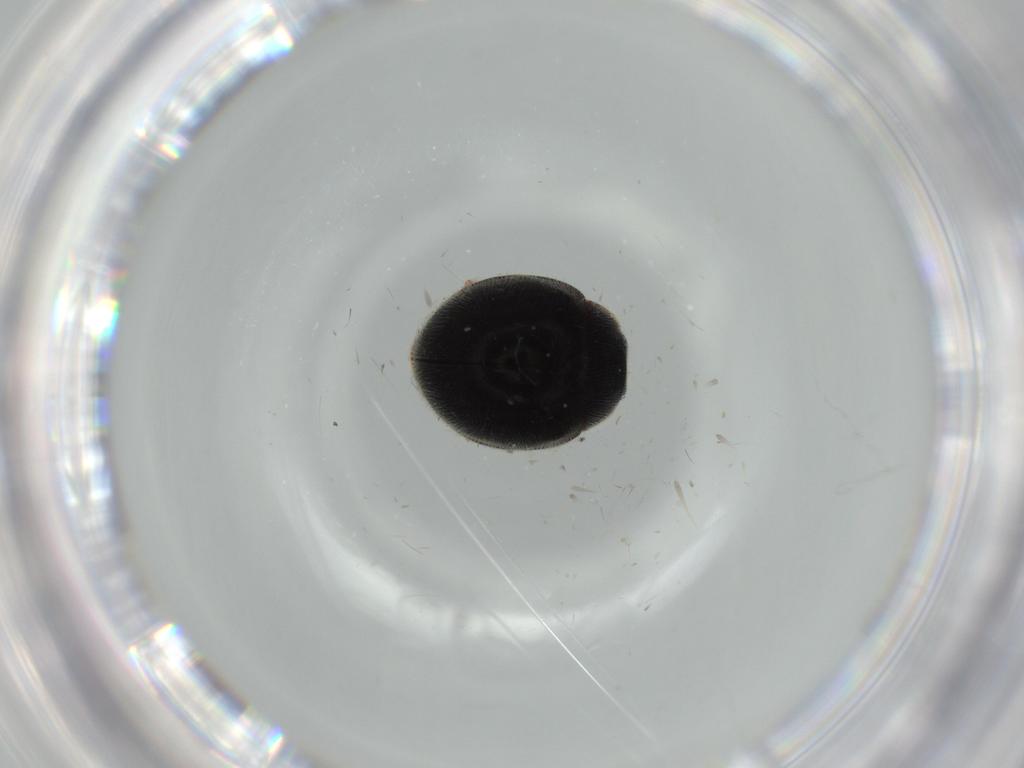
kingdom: Animalia
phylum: Arthropoda
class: Insecta
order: Coleoptera
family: Coccinellidae
